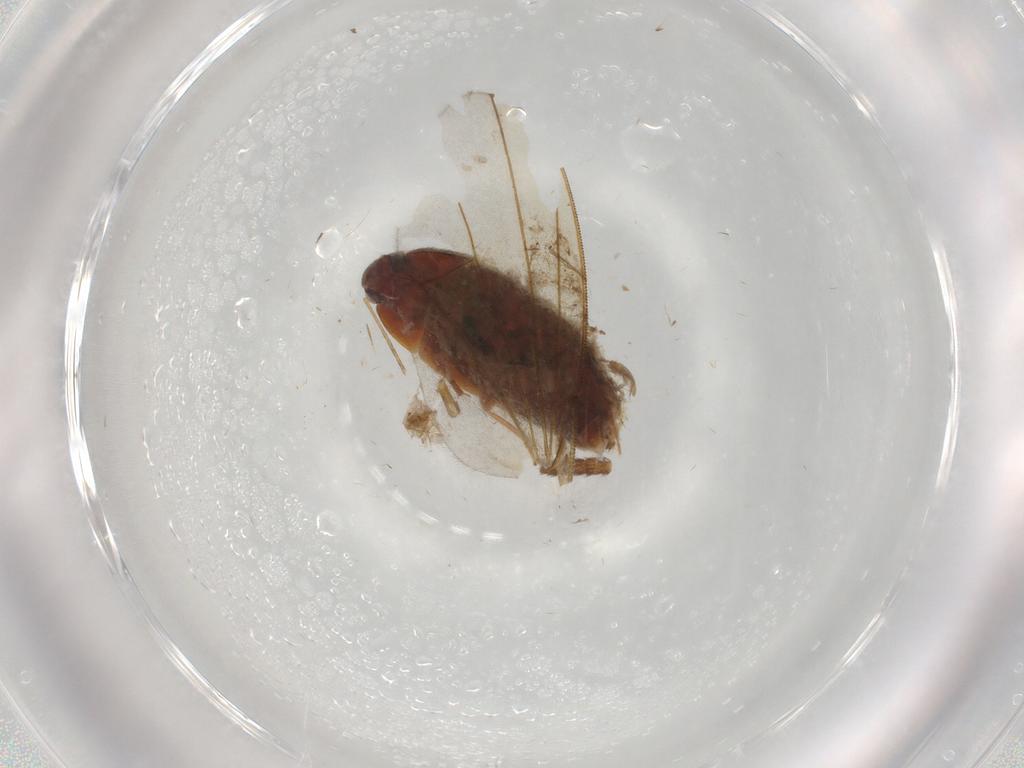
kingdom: Animalia
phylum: Arthropoda
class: Insecta
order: Coleoptera
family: Mycetophagidae
